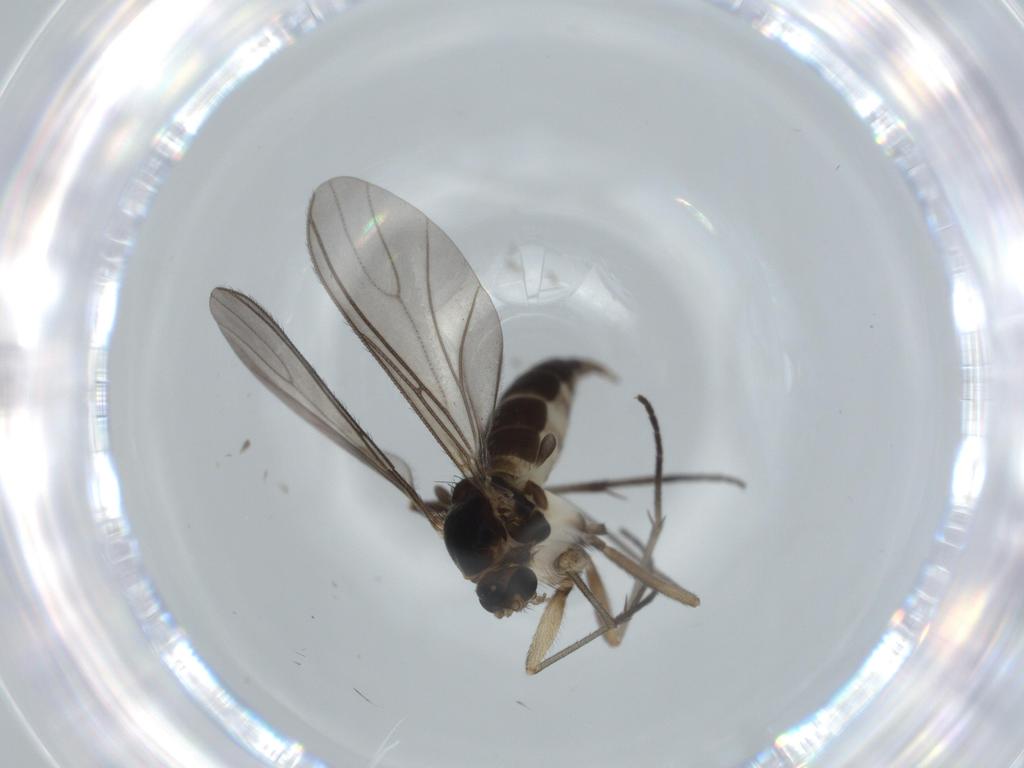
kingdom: Animalia
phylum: Arthropoda
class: Insecta
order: Diptera
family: Sciaridae
